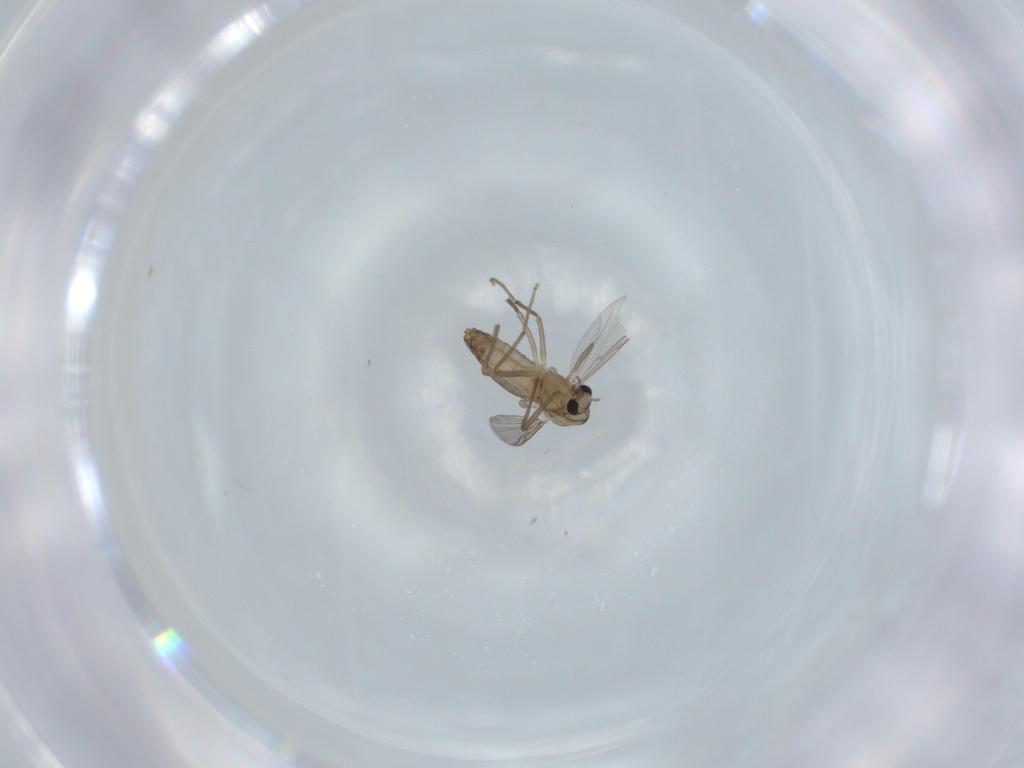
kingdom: Animalia
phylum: Arthropoda
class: Insecta
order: Diptera
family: Chironomidae
